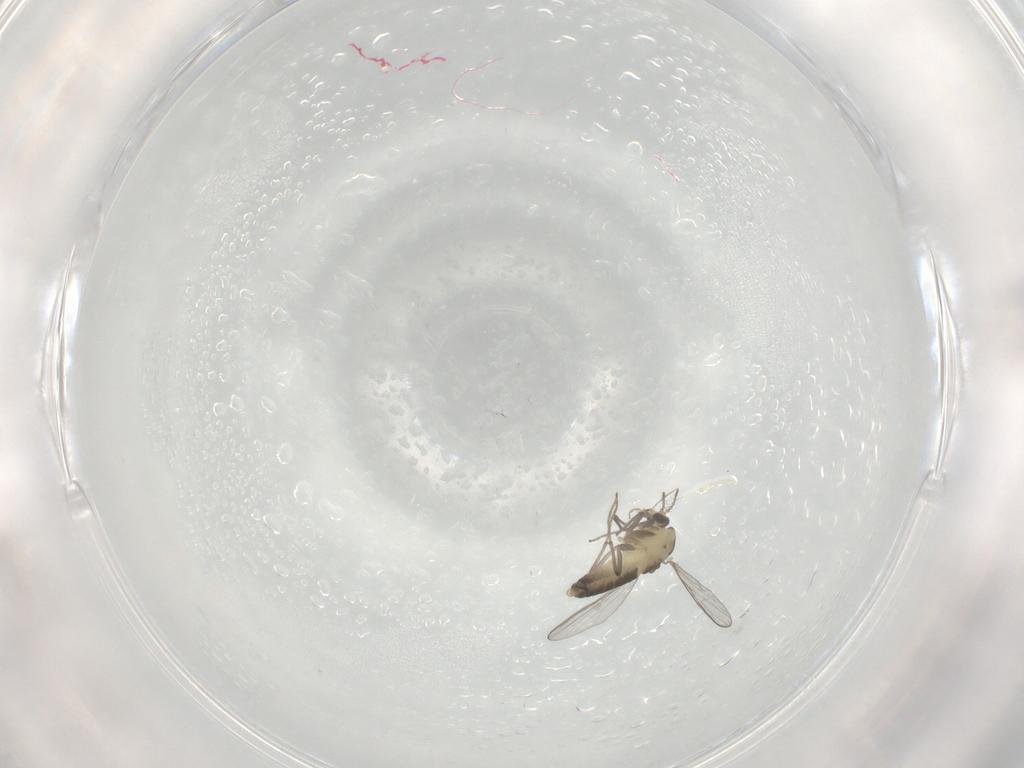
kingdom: Animalia
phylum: Arthropoda
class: Insecta
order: Diptera
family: Chironomidae
